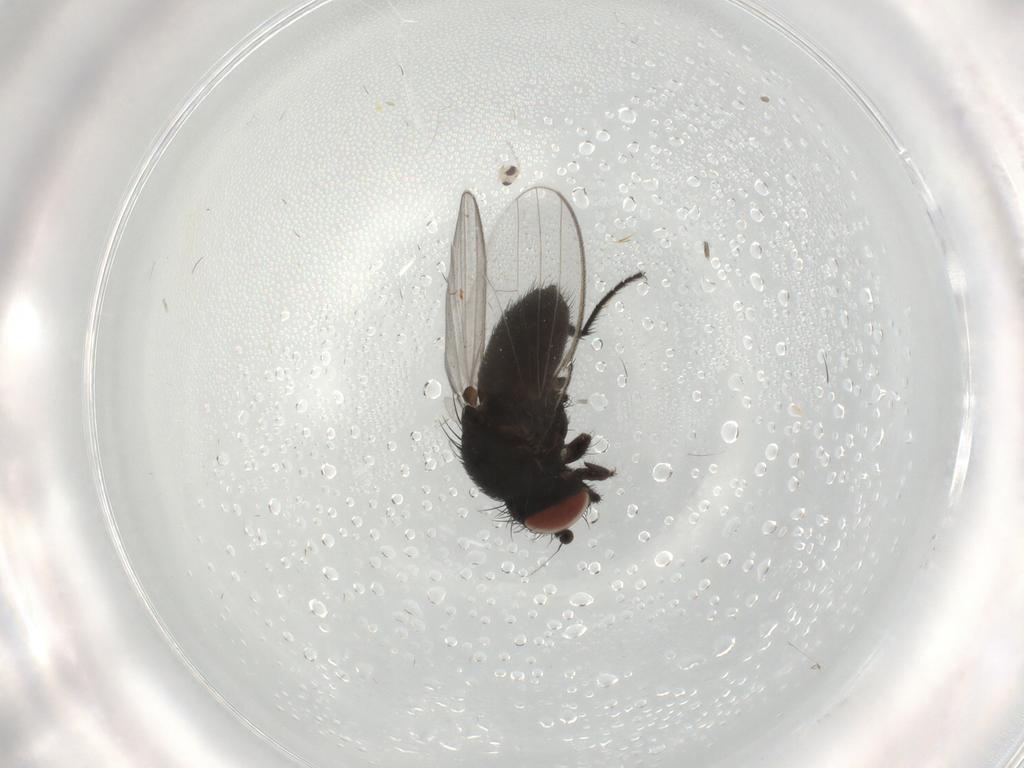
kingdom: Animalia
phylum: Arthropoda
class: Insecta
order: Diptera
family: Milichiidae
